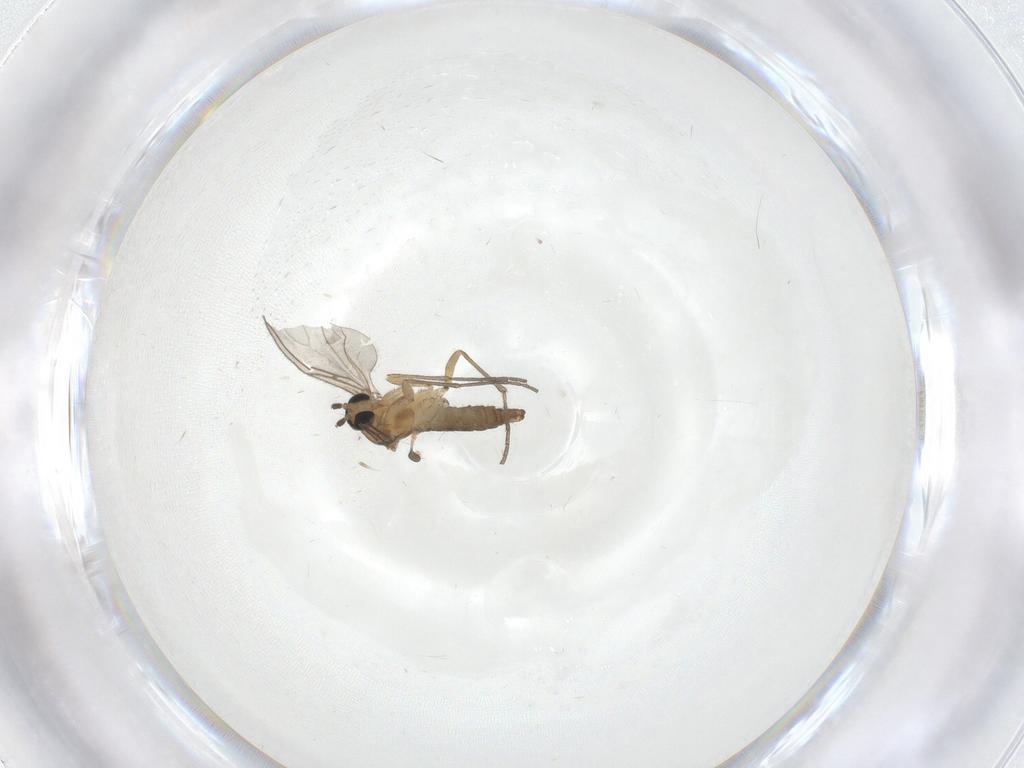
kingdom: Animalia
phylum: Arthropoda
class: Insecta
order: Diptera
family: Sciaridae
